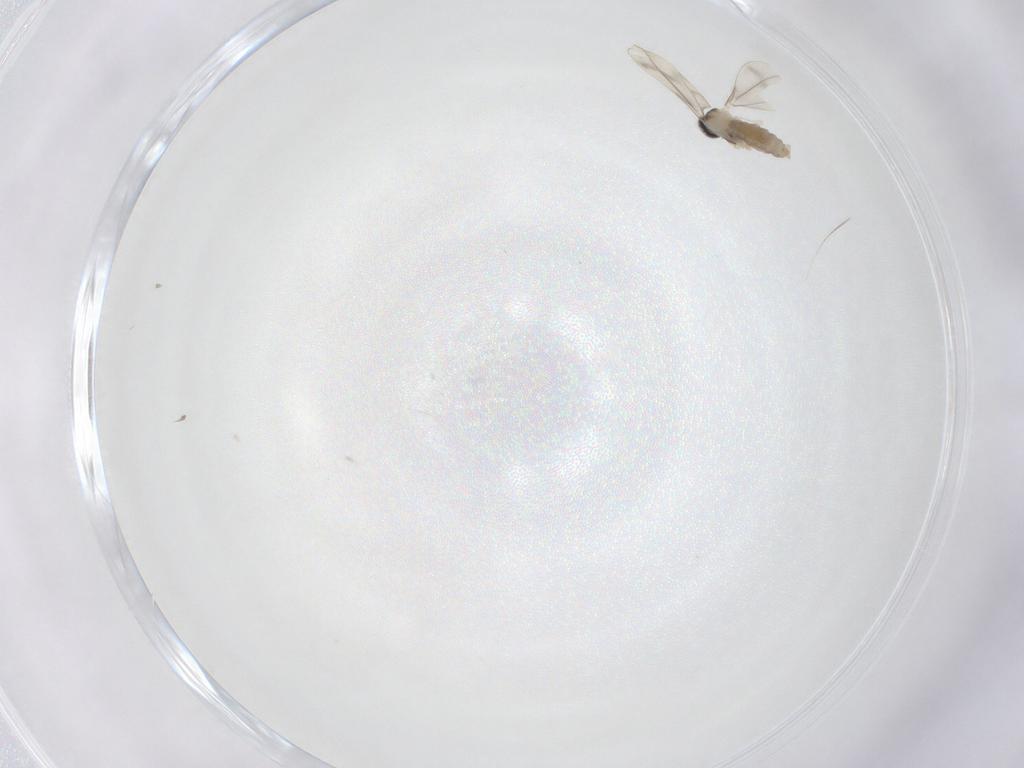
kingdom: Animalia
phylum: Arthropoda
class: Insecta
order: Diptera
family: Cecidomyiidae
